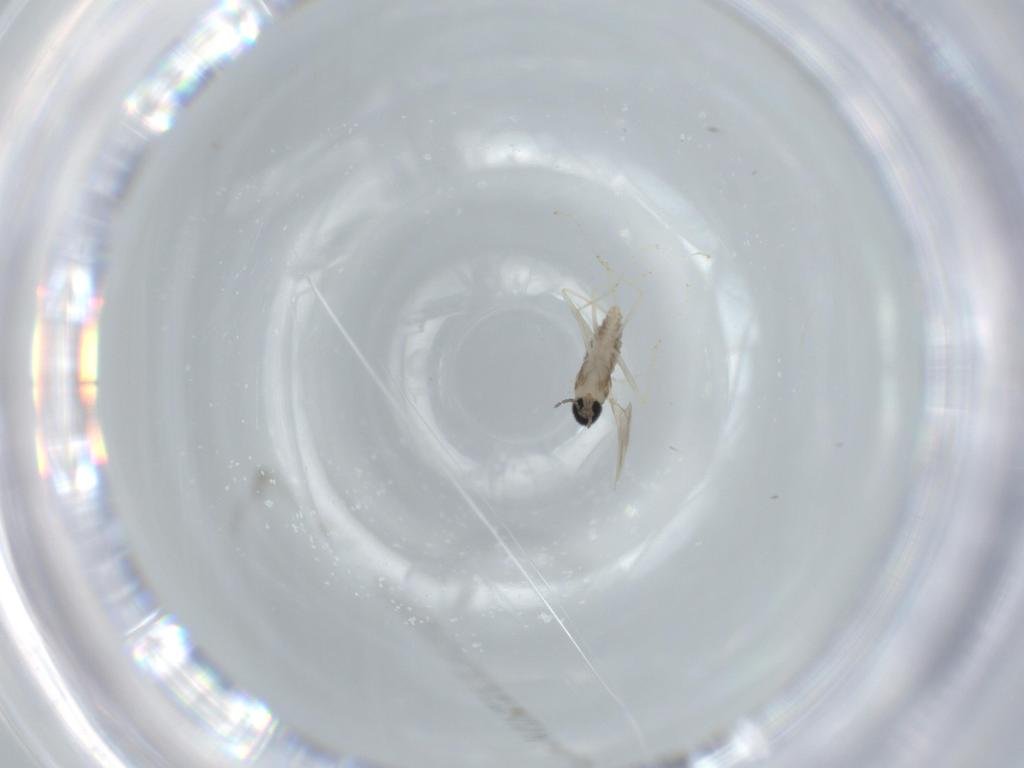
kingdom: Animalia
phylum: Arthropoda
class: Insecta
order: Diptera
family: Cecidomyiidae
